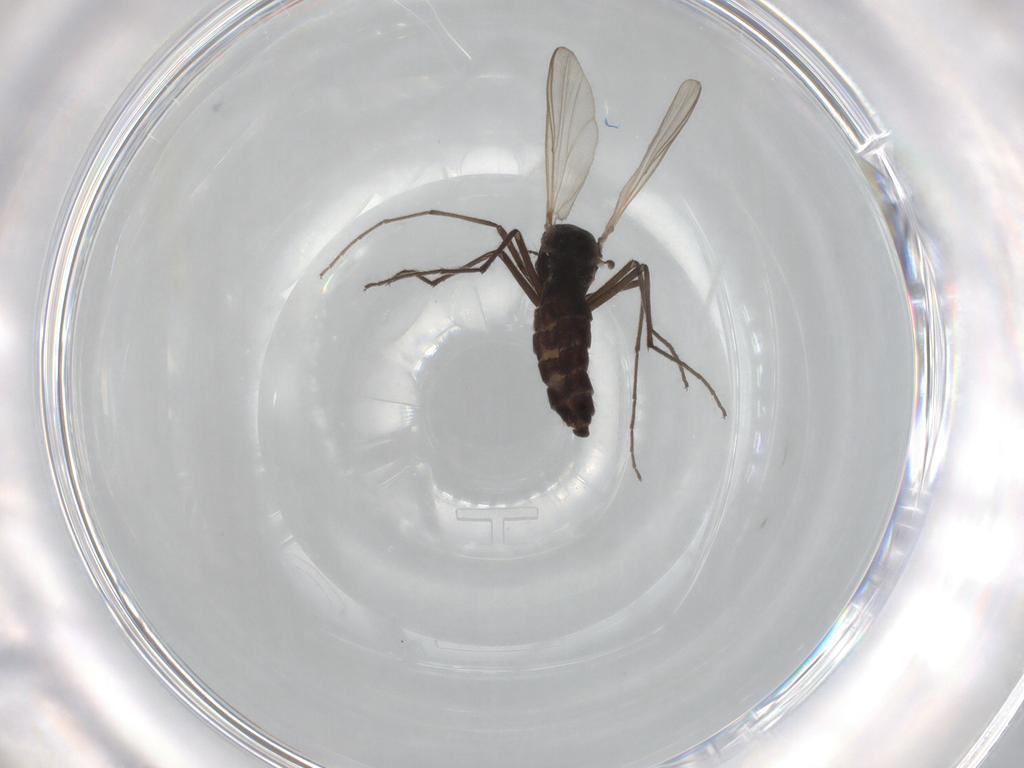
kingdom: Animalia
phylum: Arthropoda
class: Insecta
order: Diptera
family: Chironomidae
